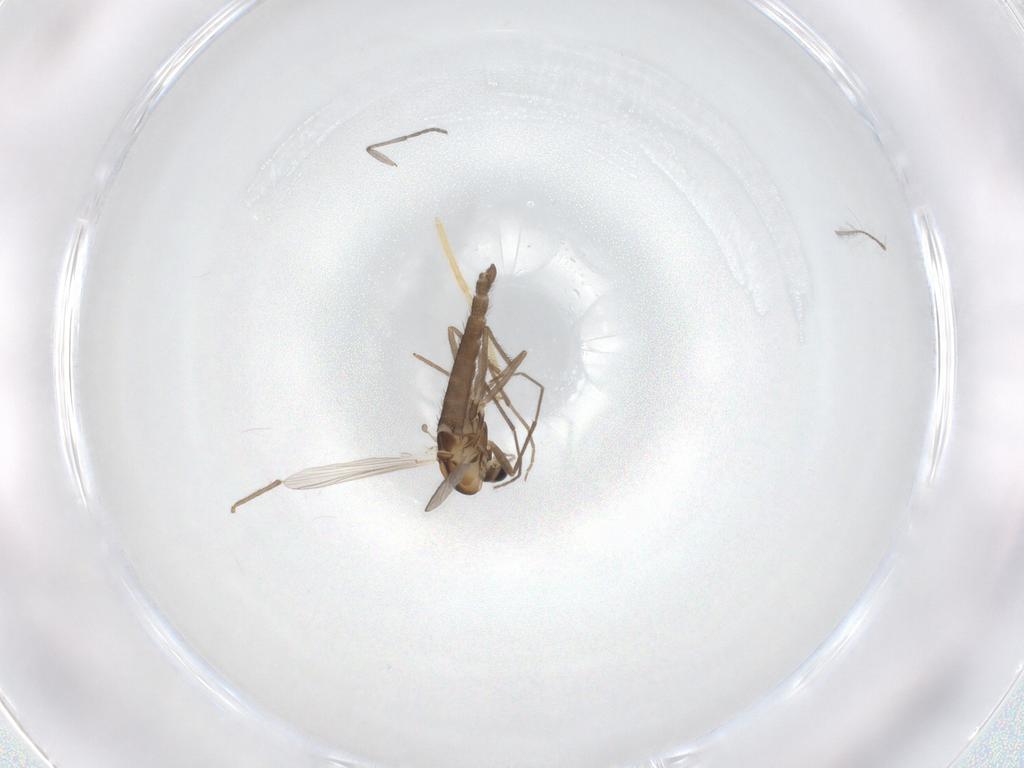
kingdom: Animalia
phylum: Arthropoda
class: Insecta
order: Diptera
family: Chironomidae
